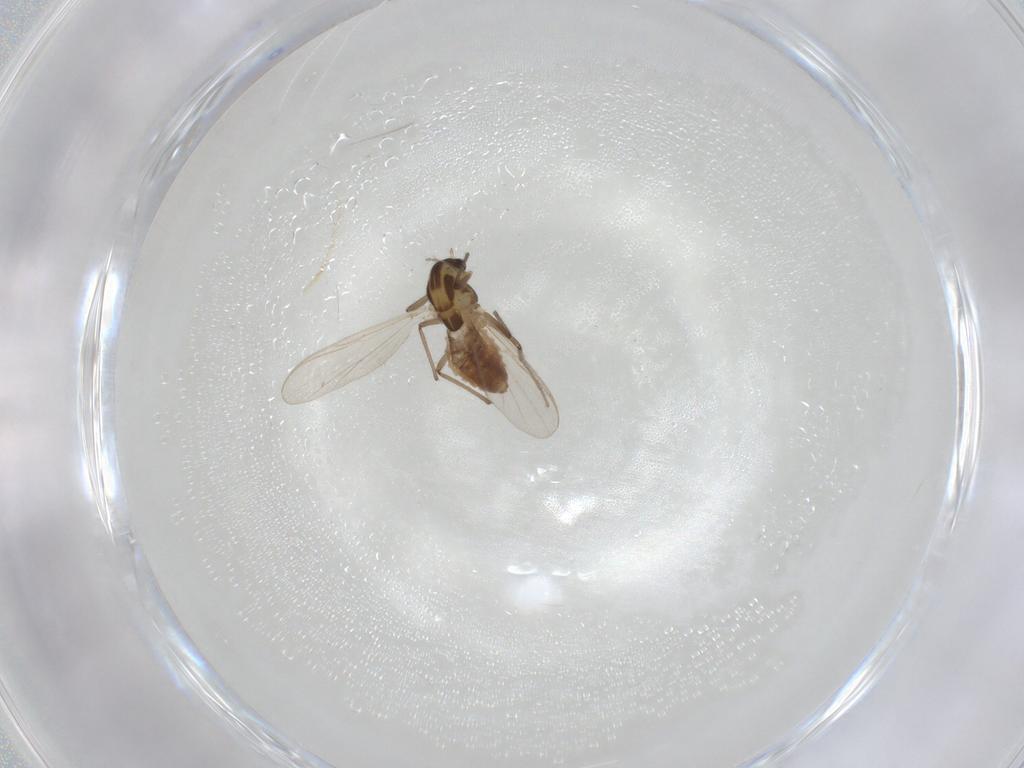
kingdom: Animalia
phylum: Arthropoda
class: Insecta
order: Diptera
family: Chironomidae
